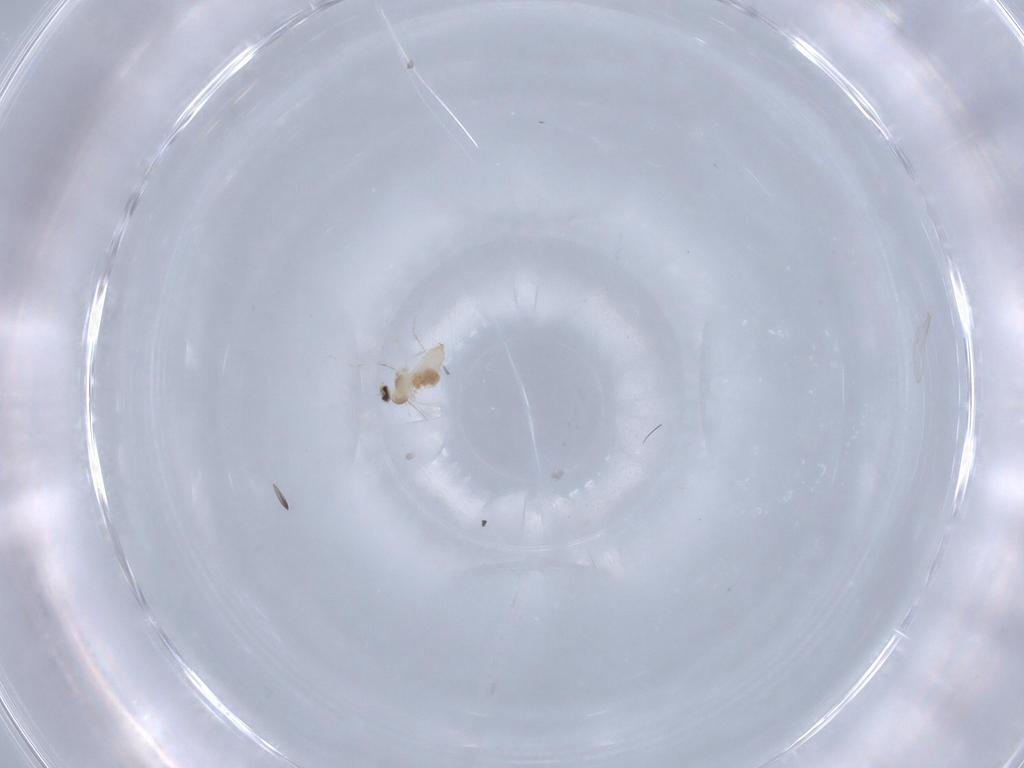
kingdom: Animalia
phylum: Arthropoda
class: Insecta
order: Diptera
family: Cecidomyiidae
